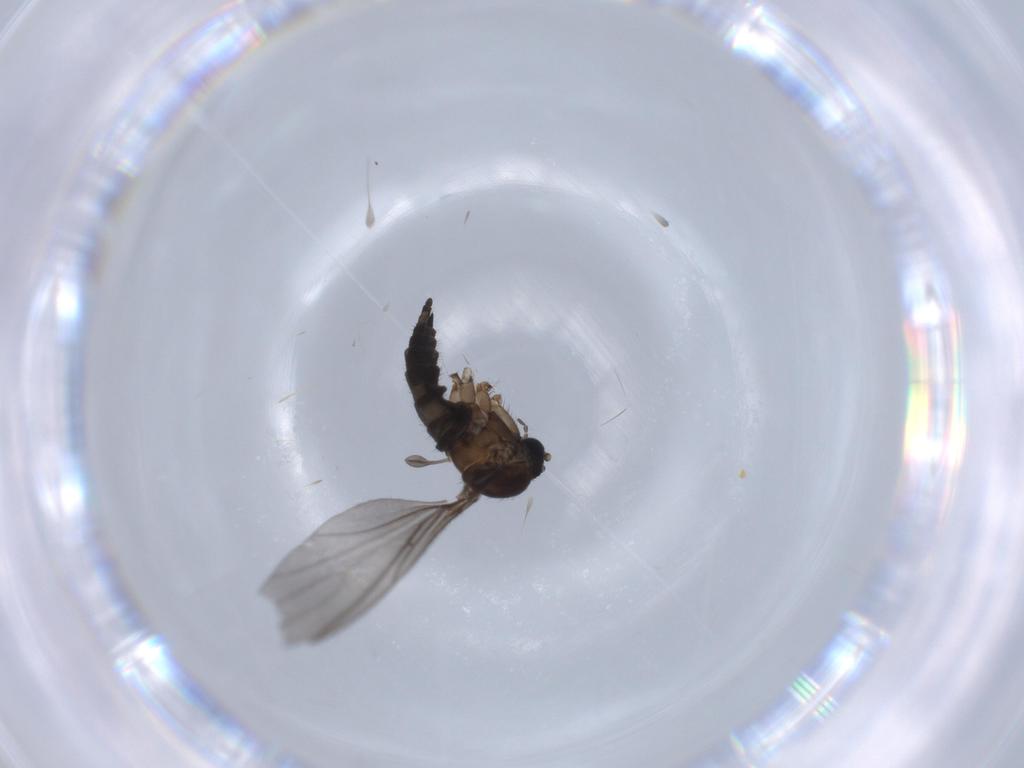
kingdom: Animalia
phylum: Arthropoda
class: Insecta
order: Diptera
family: Sciaridae
